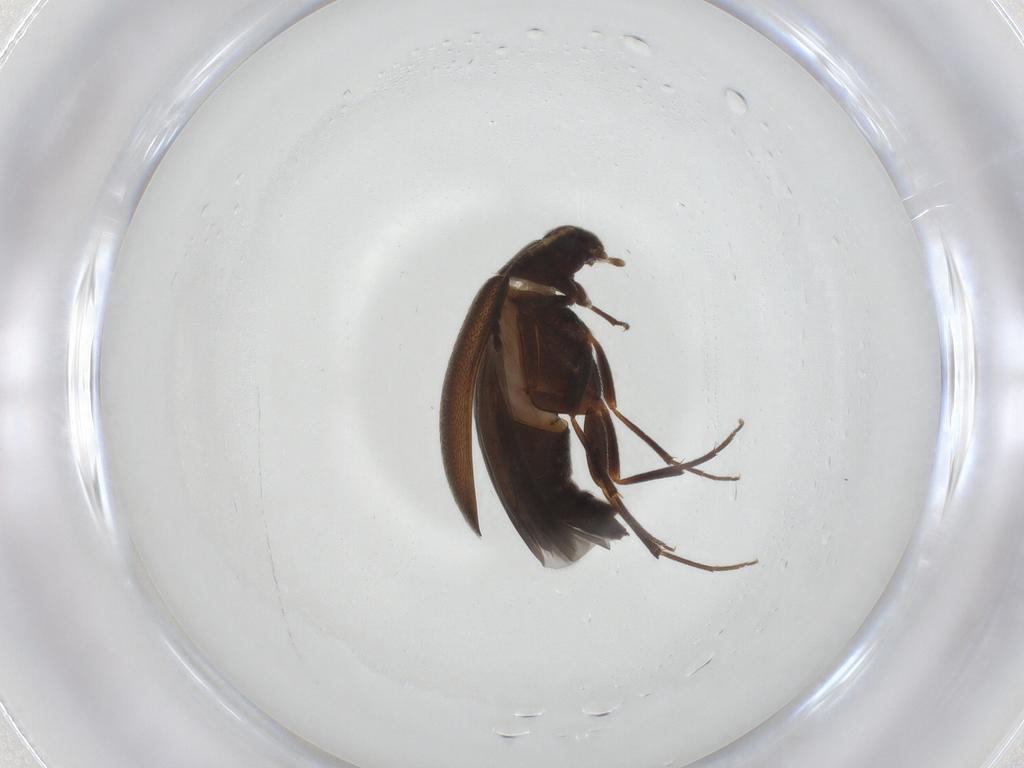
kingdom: Animalia
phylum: Arthropoda
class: Insecta
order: Coleoptera
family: Melandryidae
